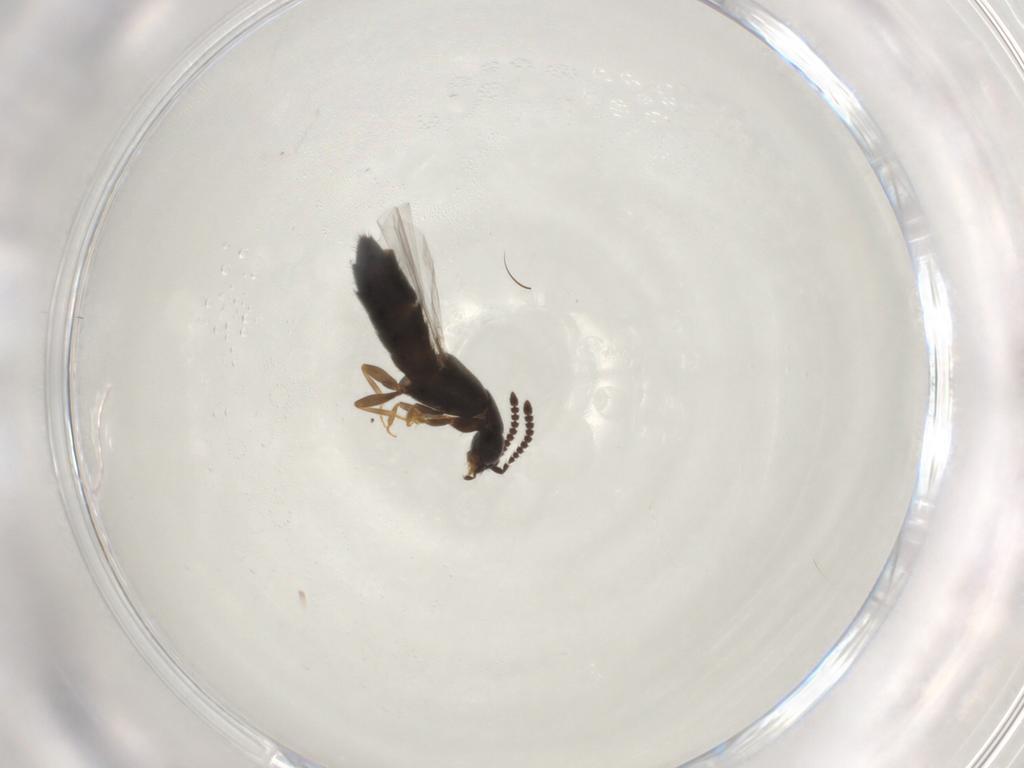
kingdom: Animalia
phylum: Arthropoda
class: Insecta
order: Coleoptera
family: Staphylinidae
